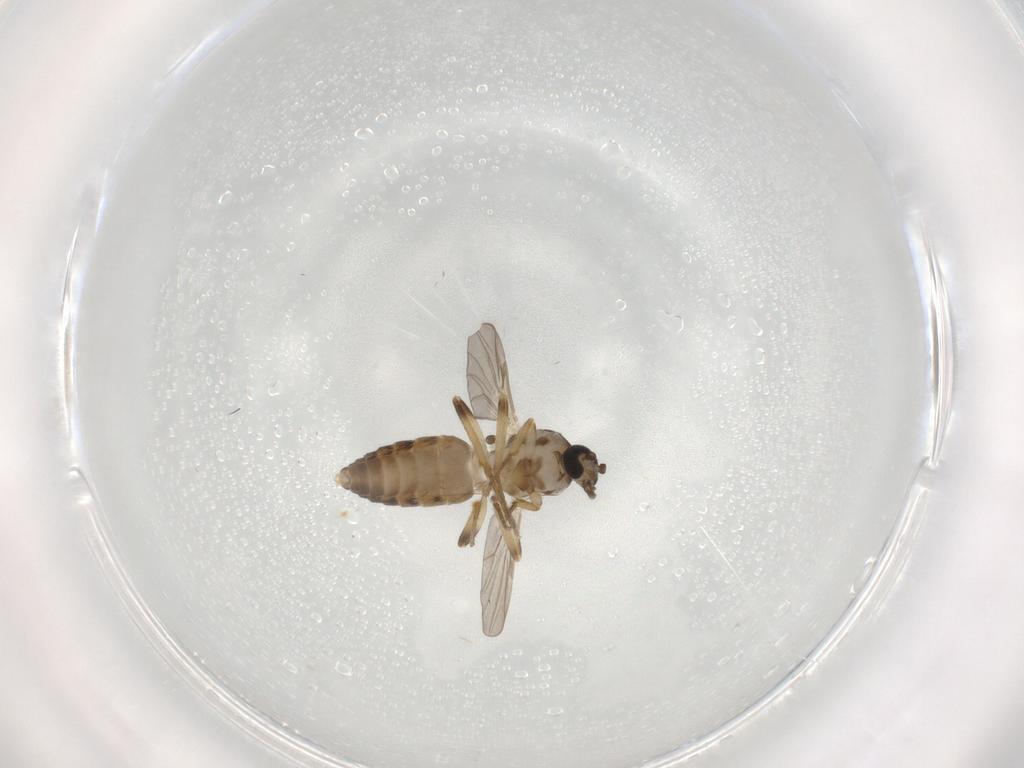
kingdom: Animalia
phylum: Arthropoda
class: Insecta
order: Diptera
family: Ceratopogonidae
